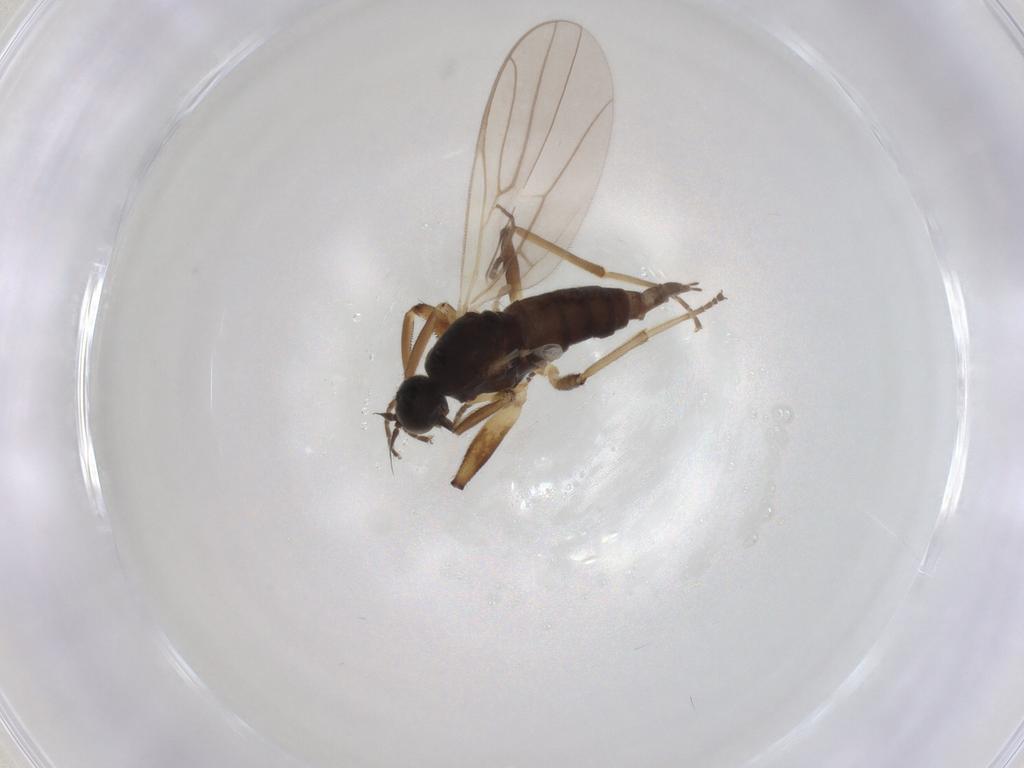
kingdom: Animalia
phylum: Arthropoda
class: Insecta
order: Diptera
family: Hybotidae
